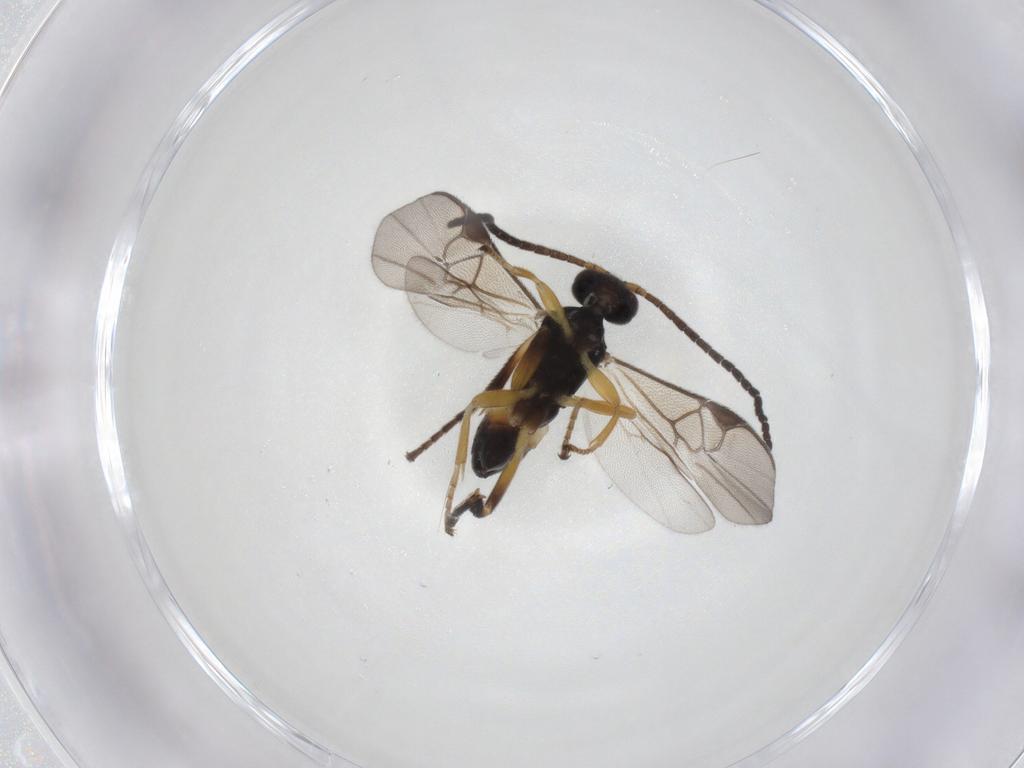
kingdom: Animalia
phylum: Arthropoda
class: Insecta
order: Hymenoptera
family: Braconidae
